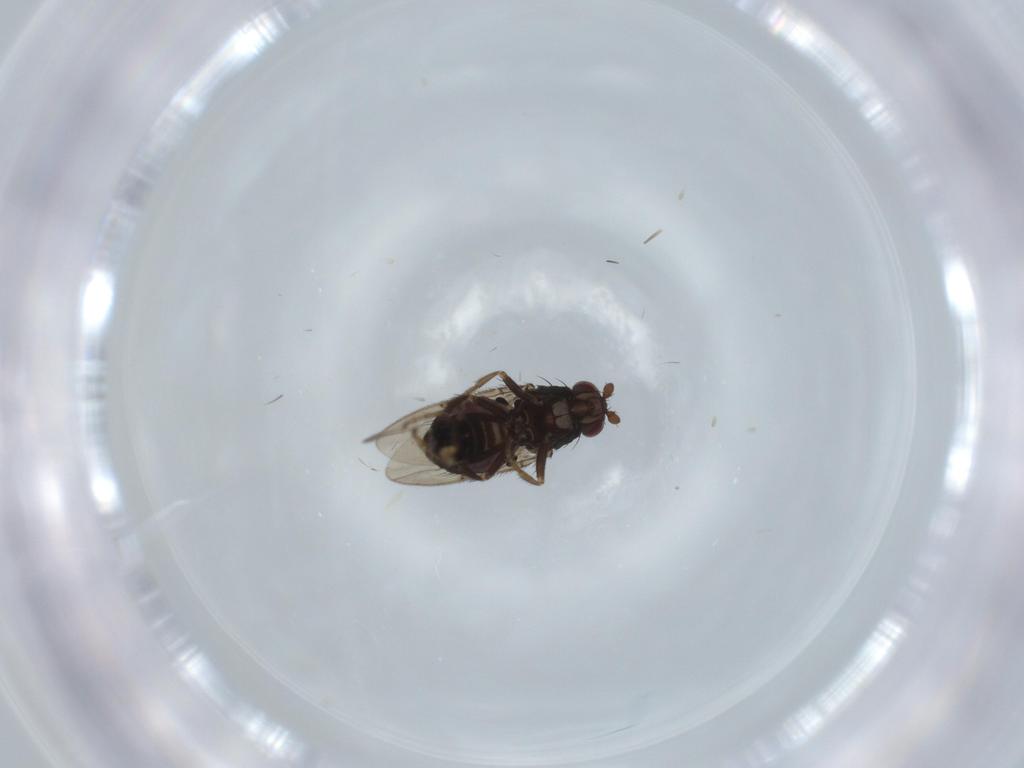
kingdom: Animalia
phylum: Arthropoda
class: Insecta
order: Diptera
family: Sphaeroceridae
